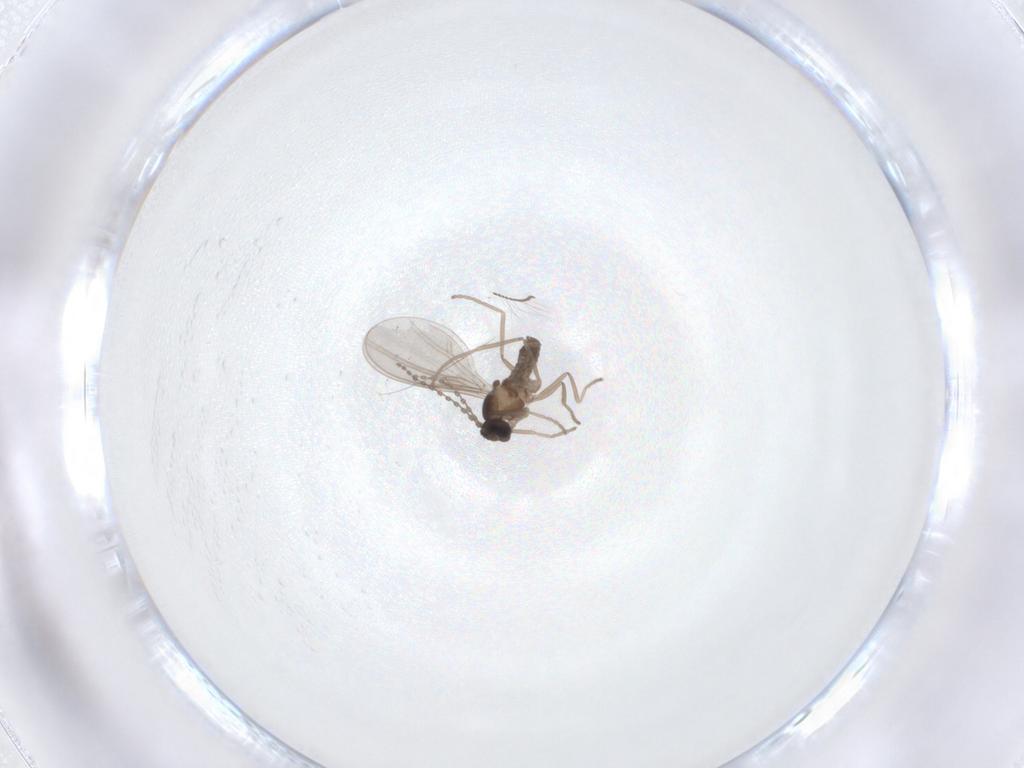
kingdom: Animalia
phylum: Arthropoda
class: Insecta
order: Diptera
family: Cecidomyiidae
